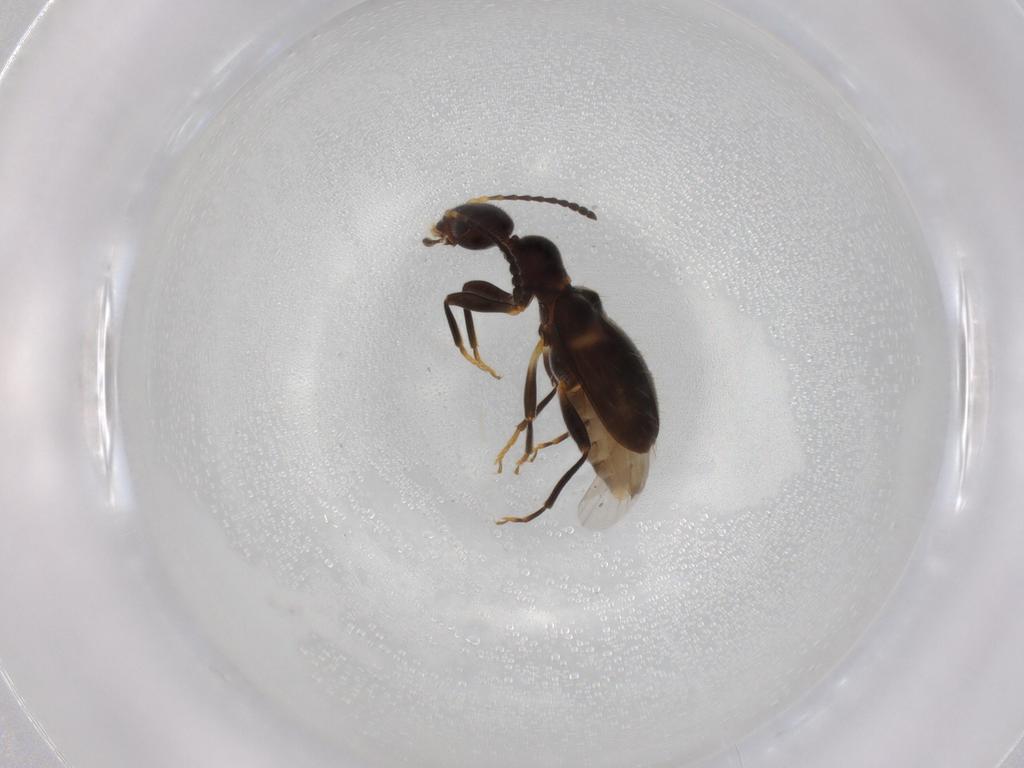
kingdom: Animalia
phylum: Arthropoda
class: Insecta
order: Coleoptera
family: Anthicidae
